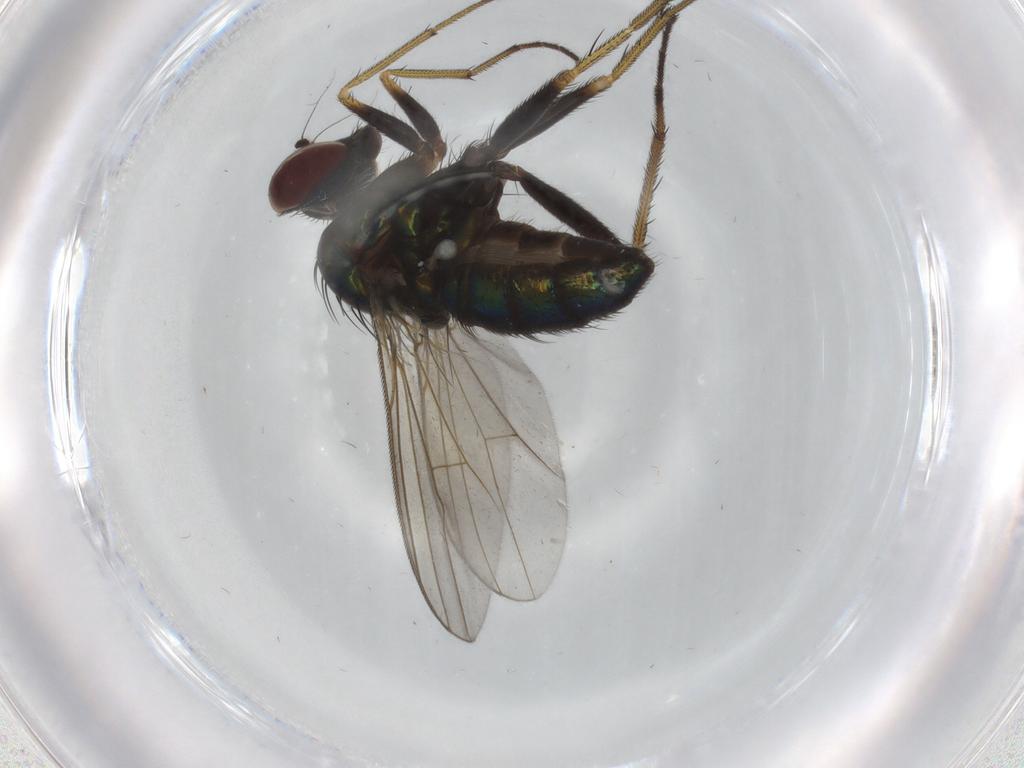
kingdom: Animalia
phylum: Arthropoda
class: Insecta
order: Diptera
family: Dolichopodidae
